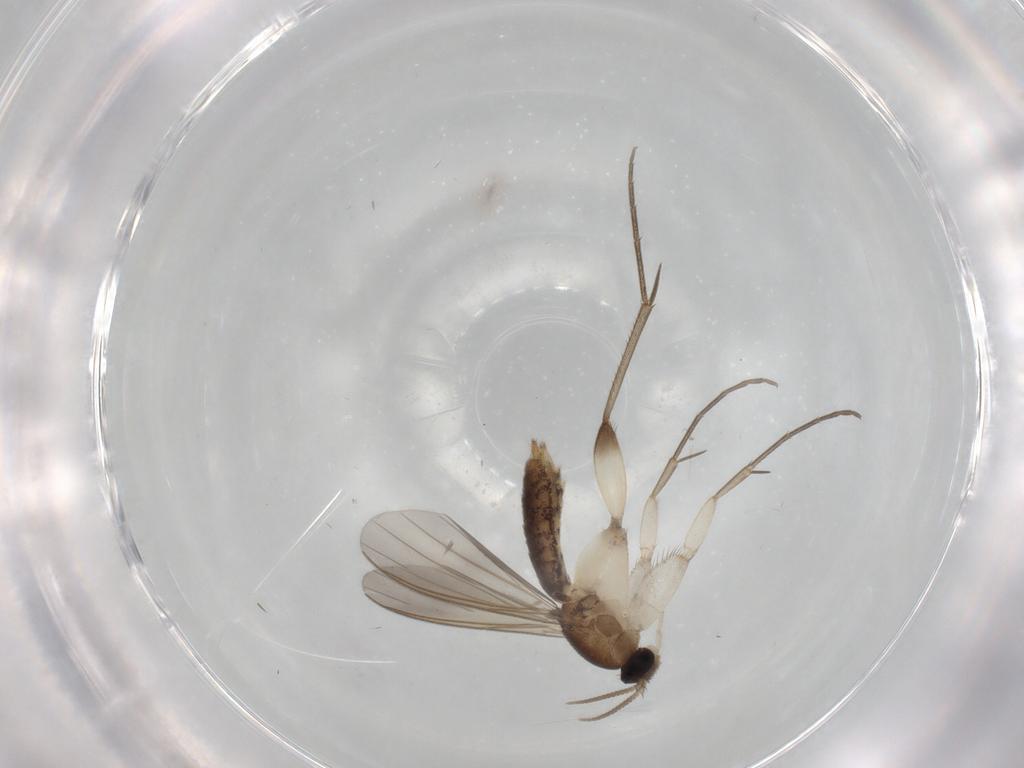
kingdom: Animalia
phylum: Arthropoda
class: Insecta
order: Diptera
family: Mycetophilidae
